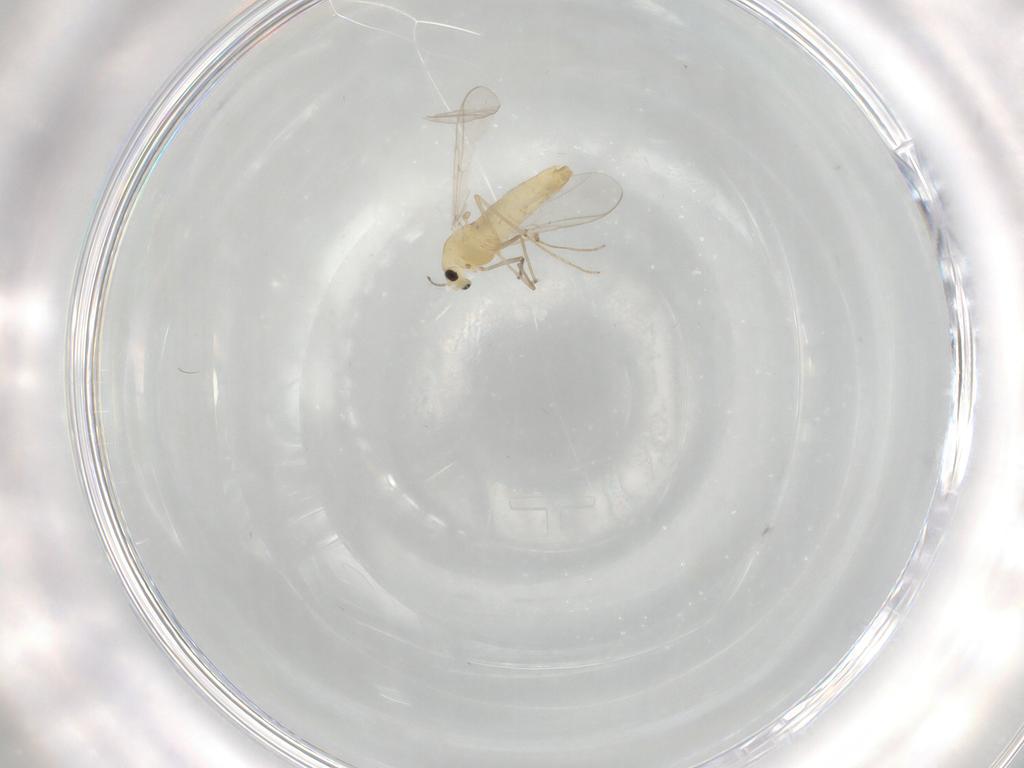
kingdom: Animalia
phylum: Arthropoda
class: Insecta
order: Diptera
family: Chironomidae
